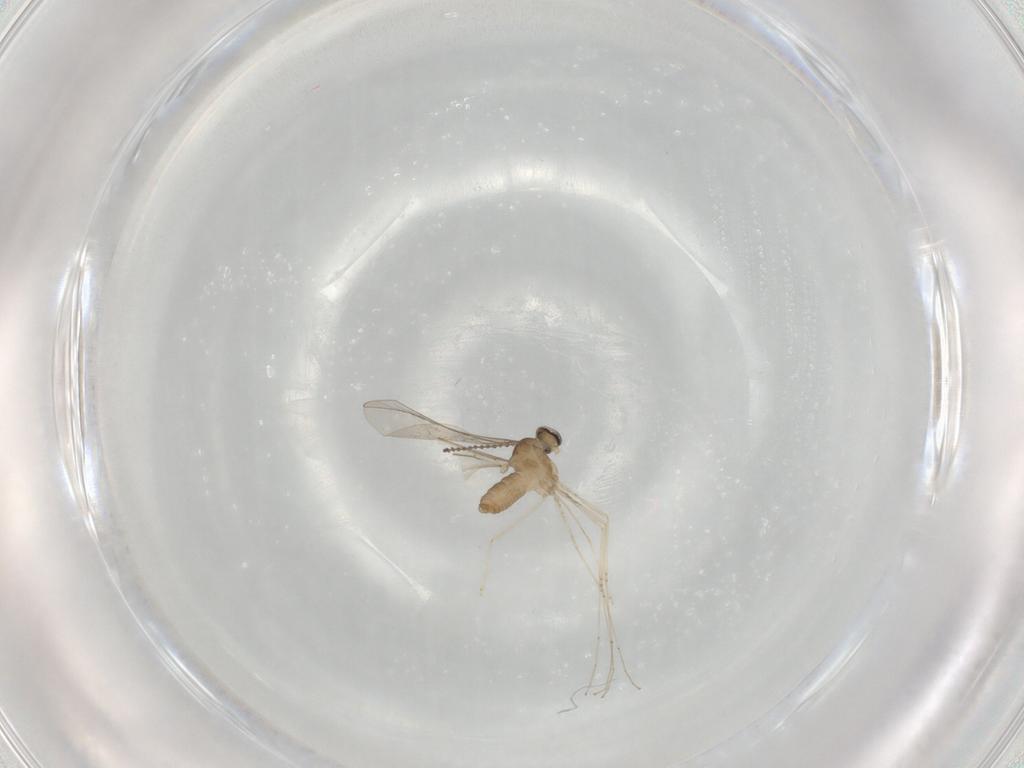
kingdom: Animalia
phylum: Arthropoda
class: Insecta
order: Diptera
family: Cecidomyiidae
